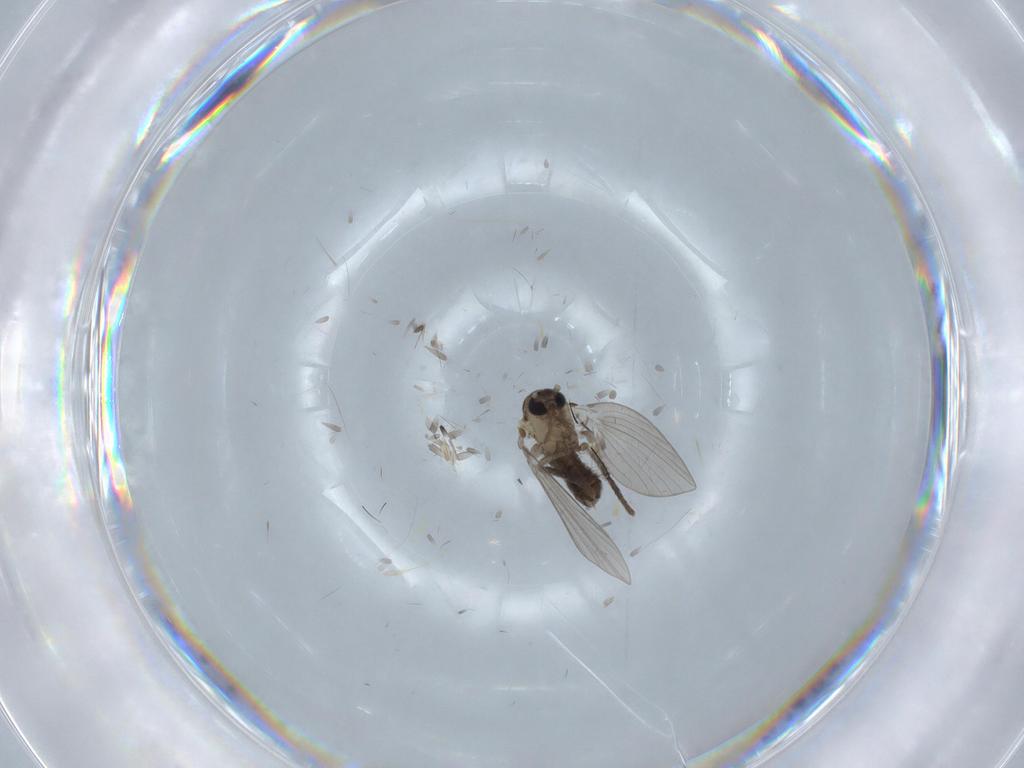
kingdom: Animalia
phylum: Arthropoda
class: Insecta
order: Diptera
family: Drosophilidae
